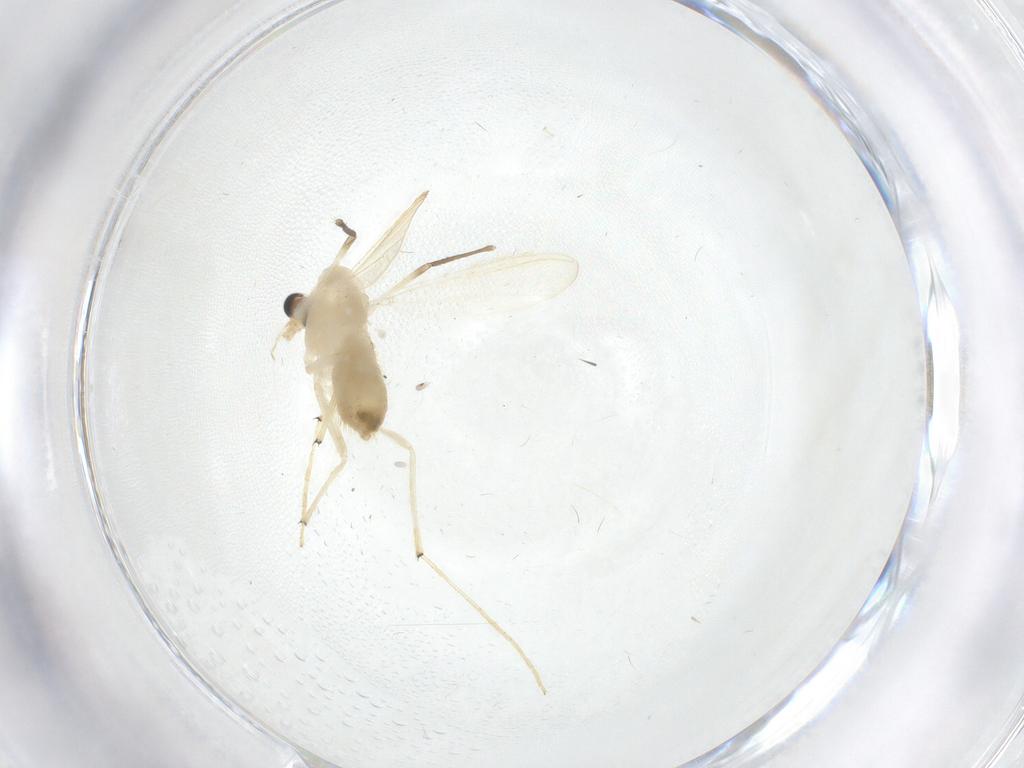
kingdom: Animalia
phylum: Arthropoda
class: Insecta
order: Diptera
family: Chironomidae
